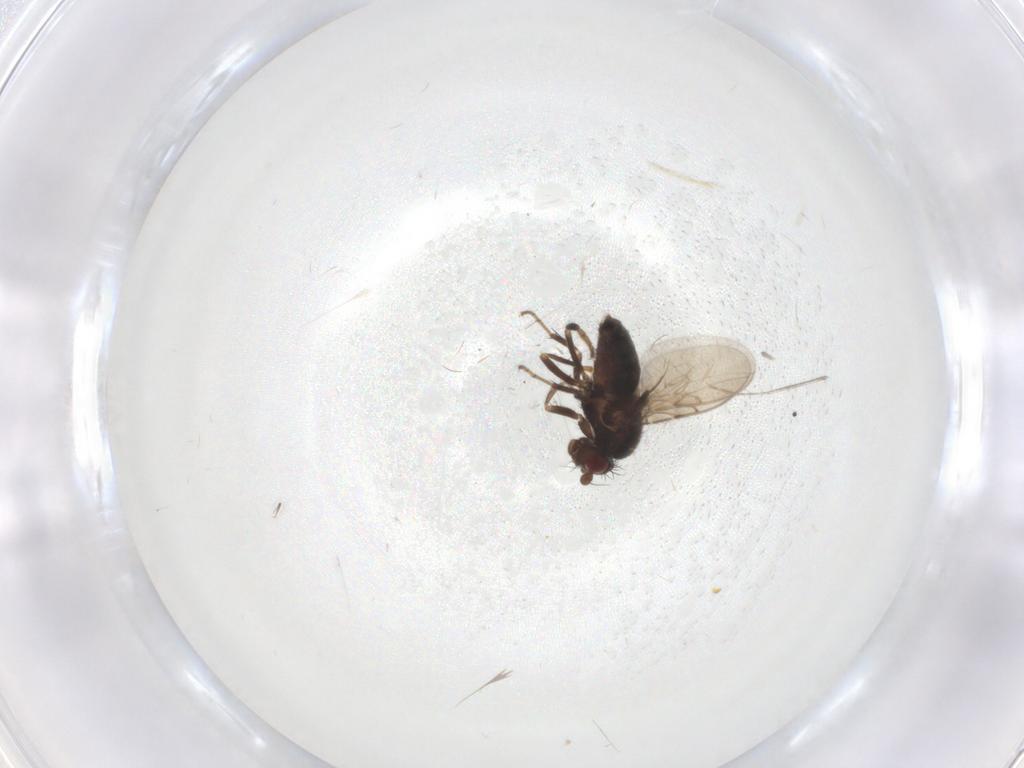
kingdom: Animalia
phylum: Arthropoda
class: Insecta
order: Diptera
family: Sphaeroceridae
